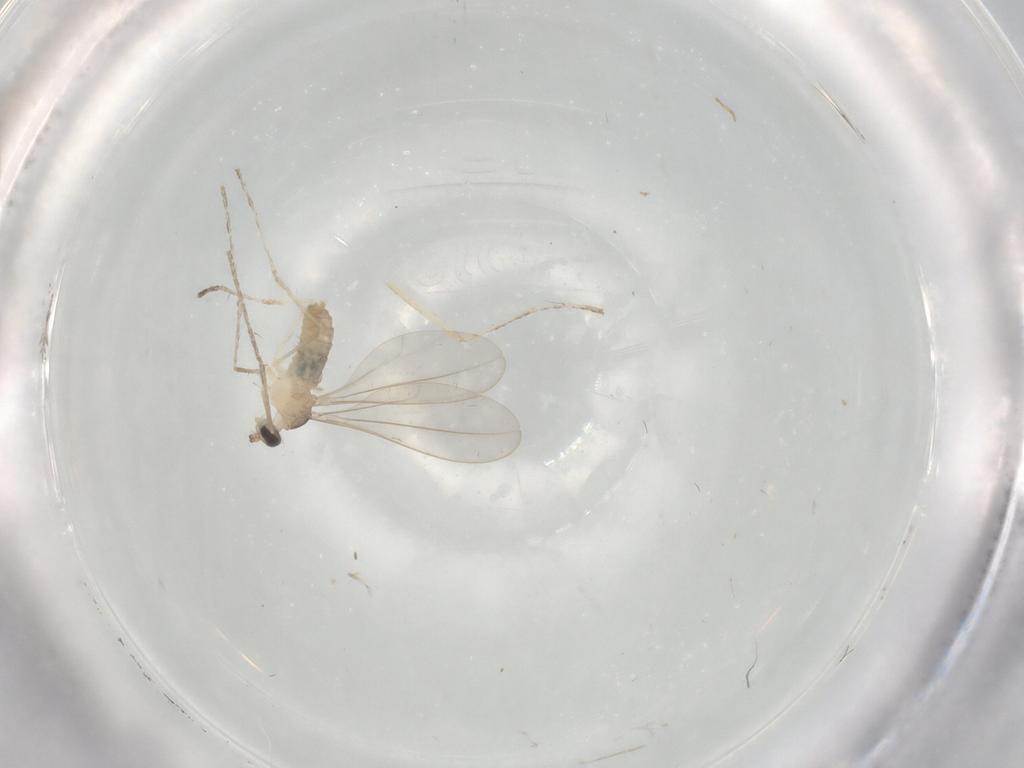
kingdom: Animalia
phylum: Arthropoda
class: Insecta
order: Diptera
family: Cecidomyiidae
